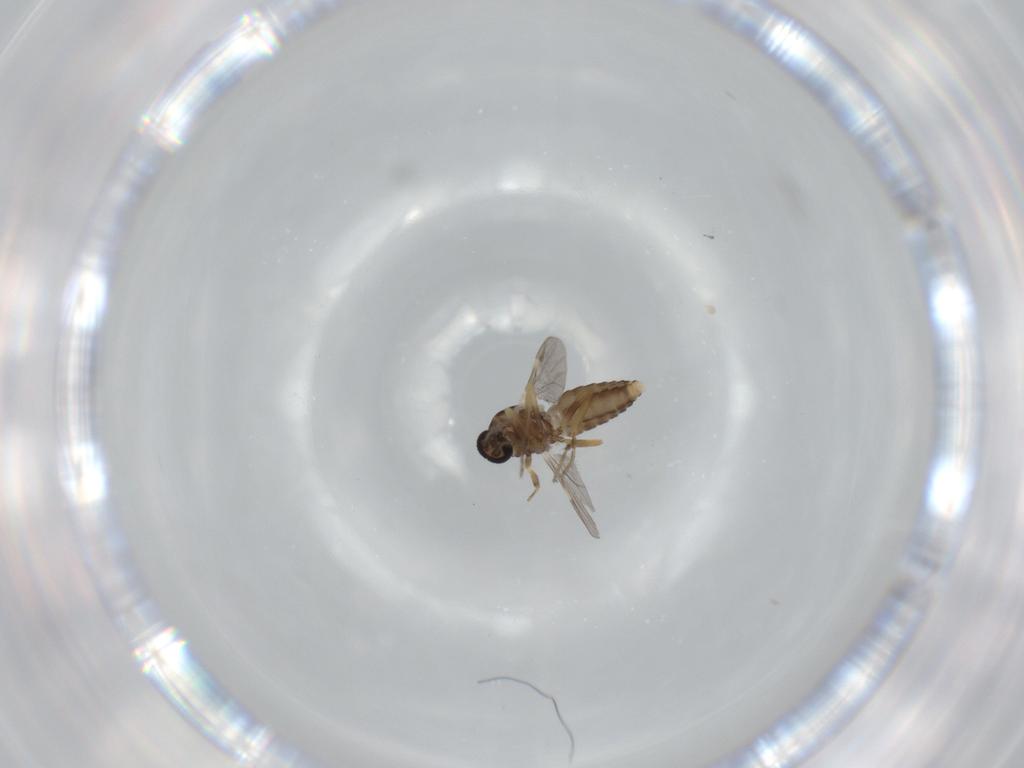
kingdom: Animalia
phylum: Arthropoda
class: Insecta
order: Diptera
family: Ceratopogonidae
